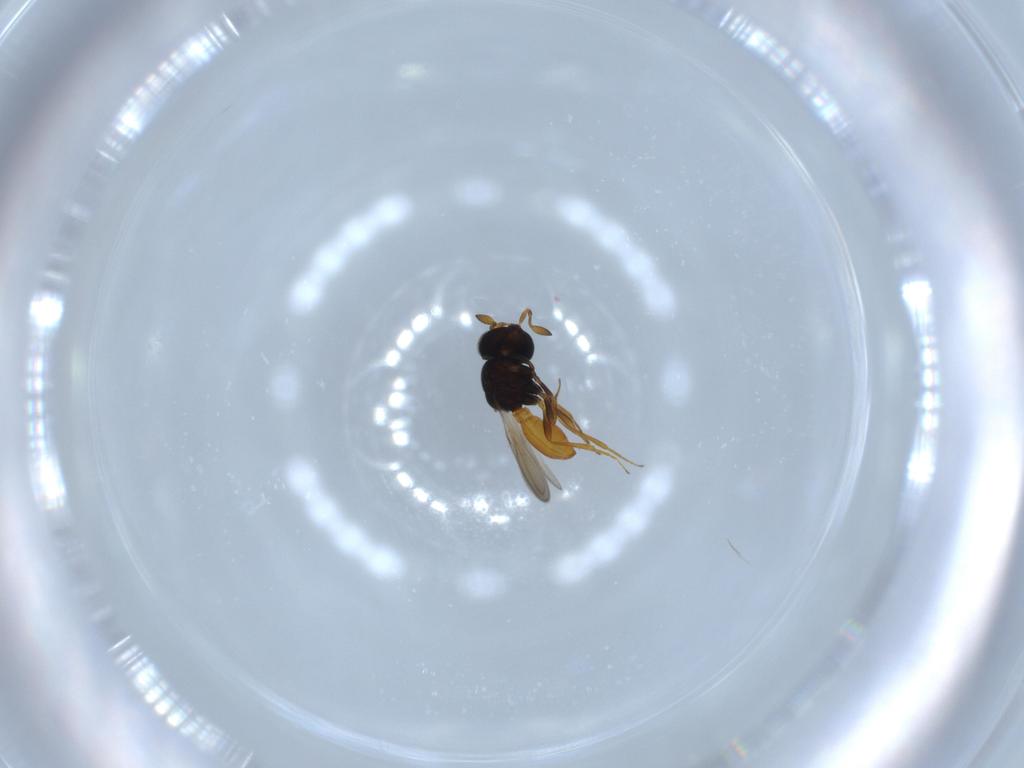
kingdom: Animalia
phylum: Arthropoda
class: Insecta
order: Hymenoptera
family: Scelionidae
